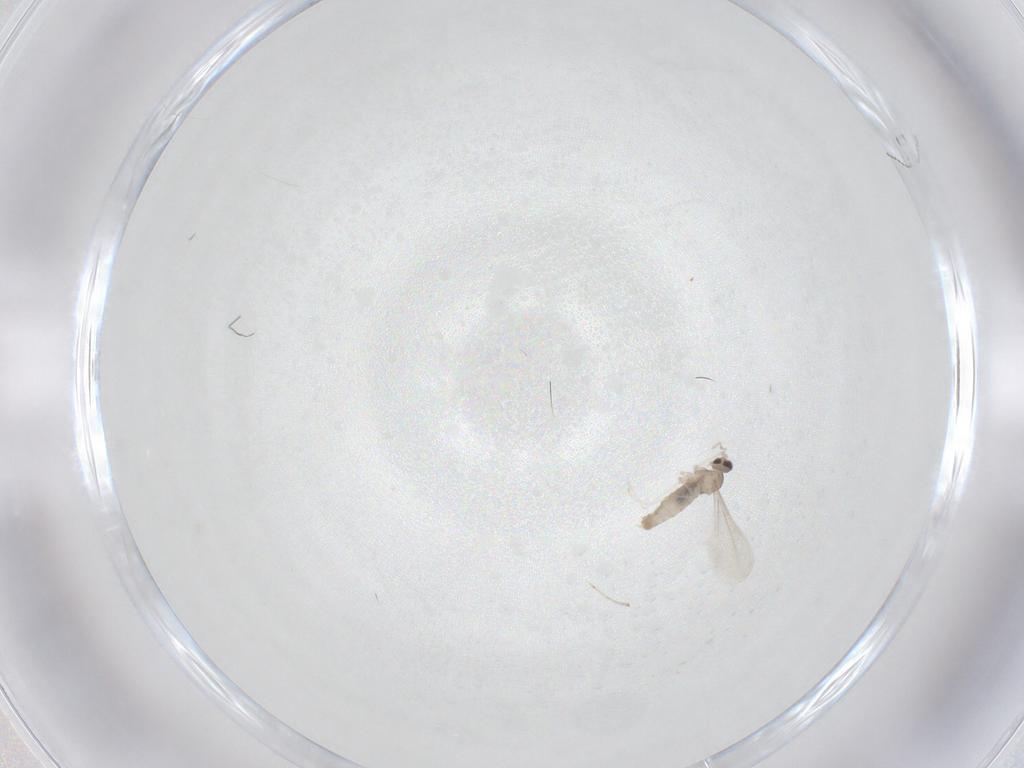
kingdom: Animalia
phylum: Arthropoda
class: Insecta
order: Diptera
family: Cecidomyiidae
